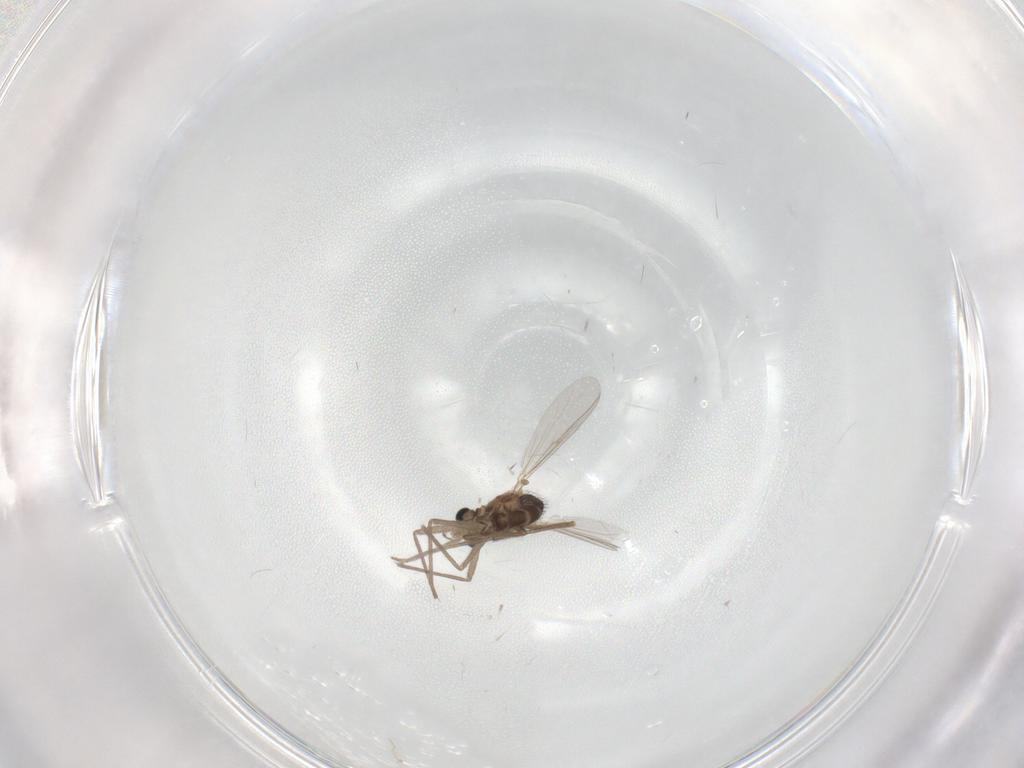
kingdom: Animalia
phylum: Arthropoda
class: Insecta
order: Diptera
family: Chironomidae
